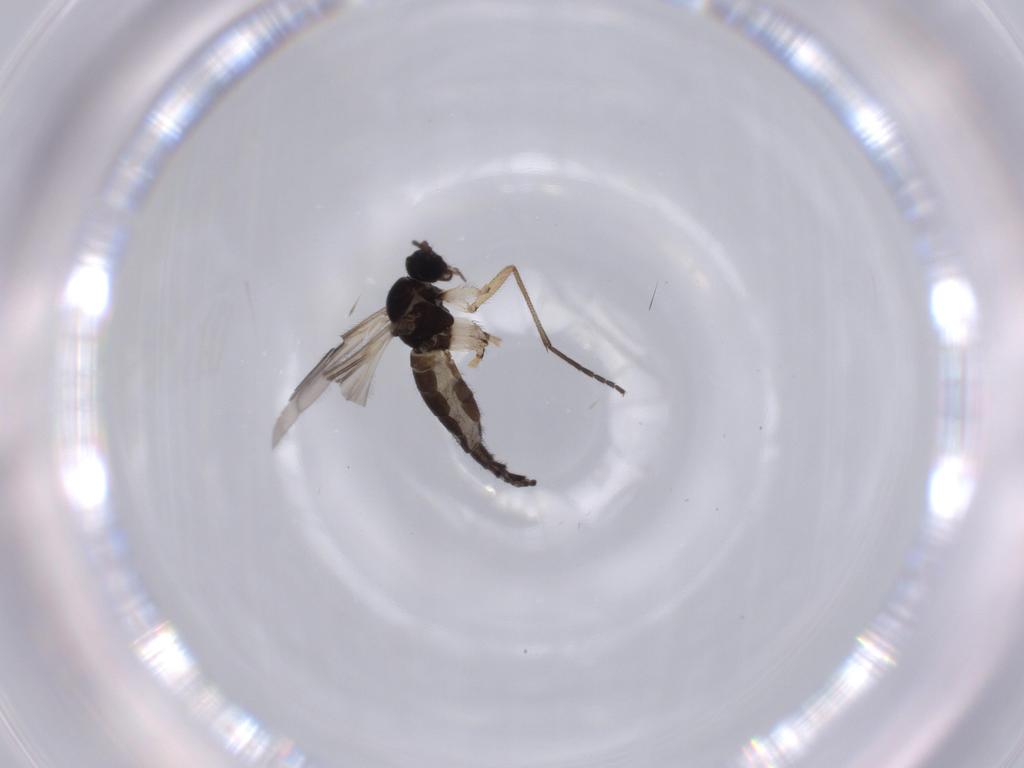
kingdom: Animalia
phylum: Arthropoda
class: Insecta
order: Diptera
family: Sciaridae
